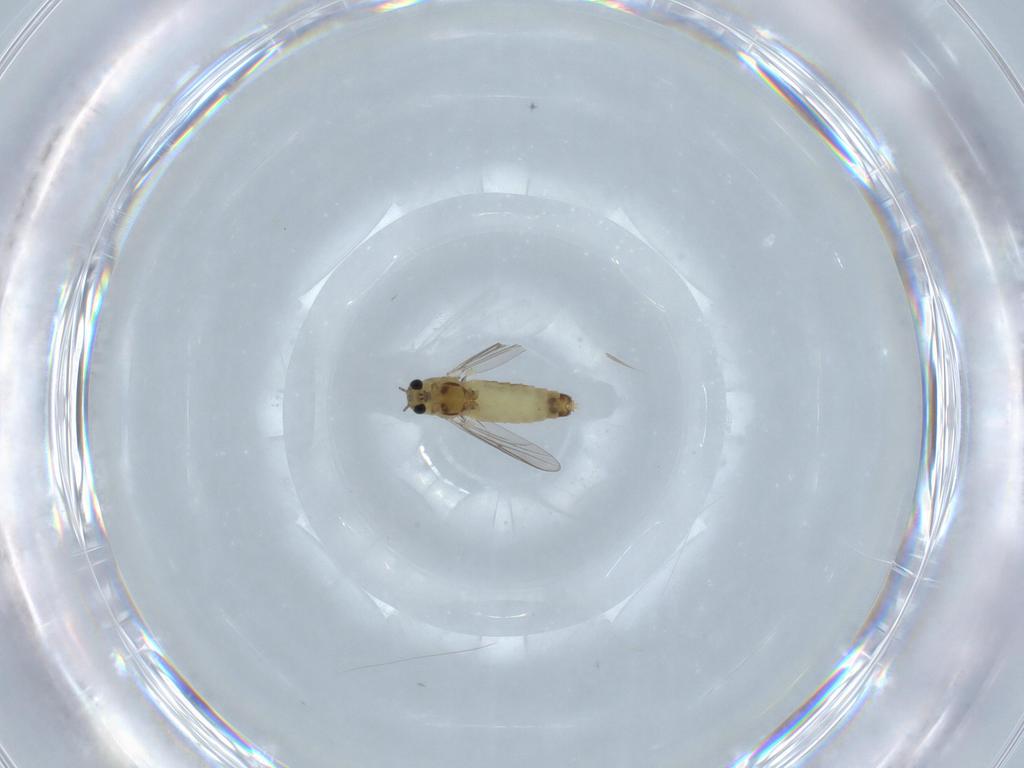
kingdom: Animalia
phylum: Arthropoda
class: Insecta
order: Diptera
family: Chironomidae
